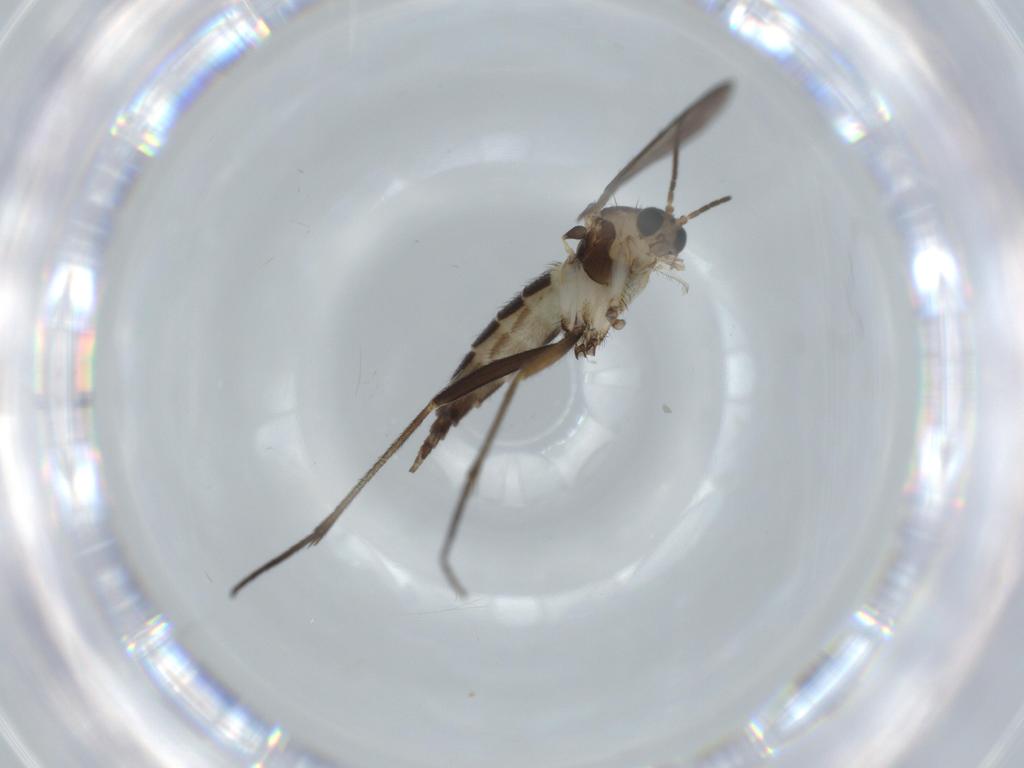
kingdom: Animalia
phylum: Arthropoda
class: Insecta
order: Diptera
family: Sciaridae
